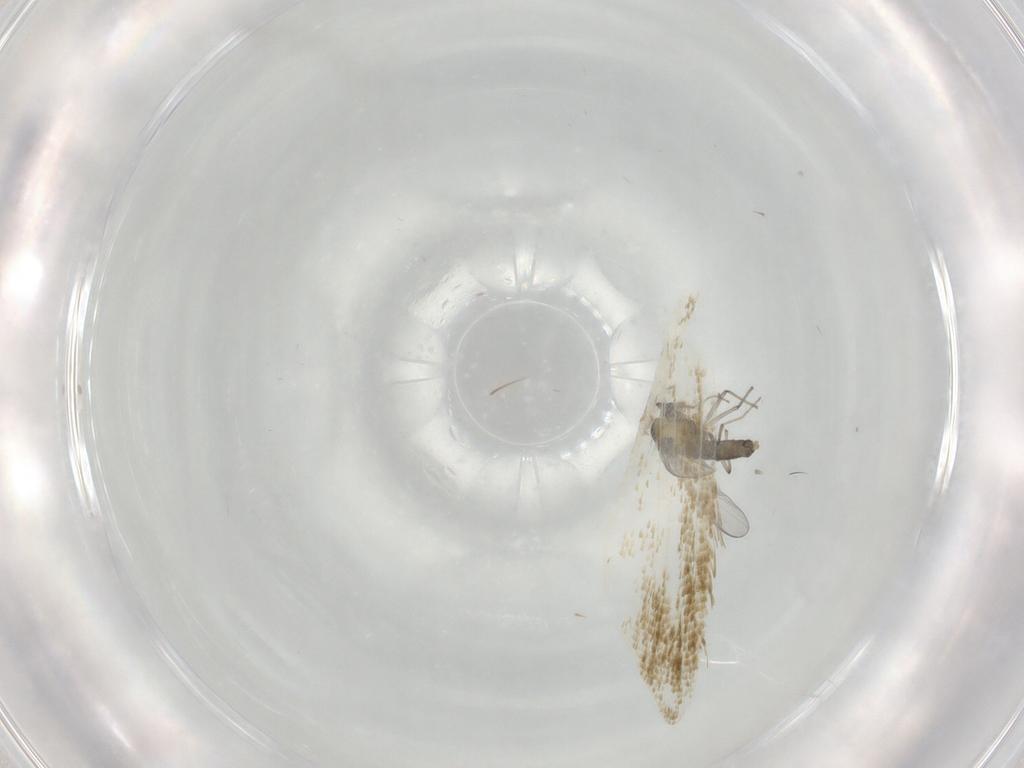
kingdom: Animalia
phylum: Arthropoda
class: Insecta
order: Diptera
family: Chironomidae
